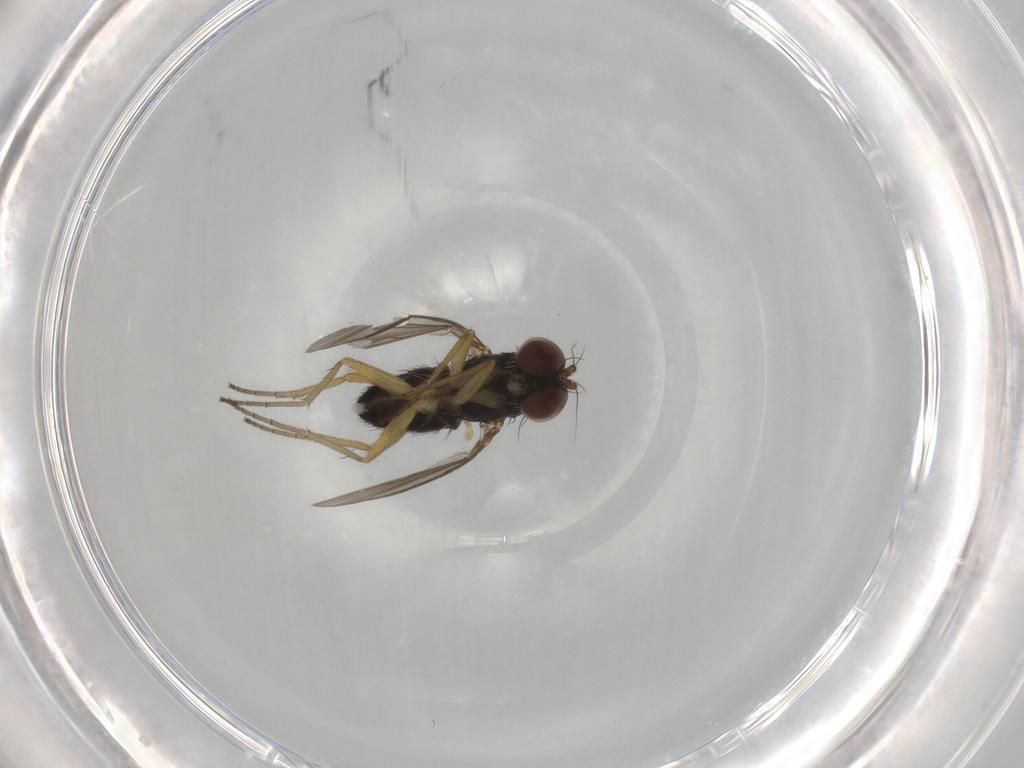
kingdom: Animalia
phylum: Arthropoda
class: Insecta
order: Diptera
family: Dolichopodidae
